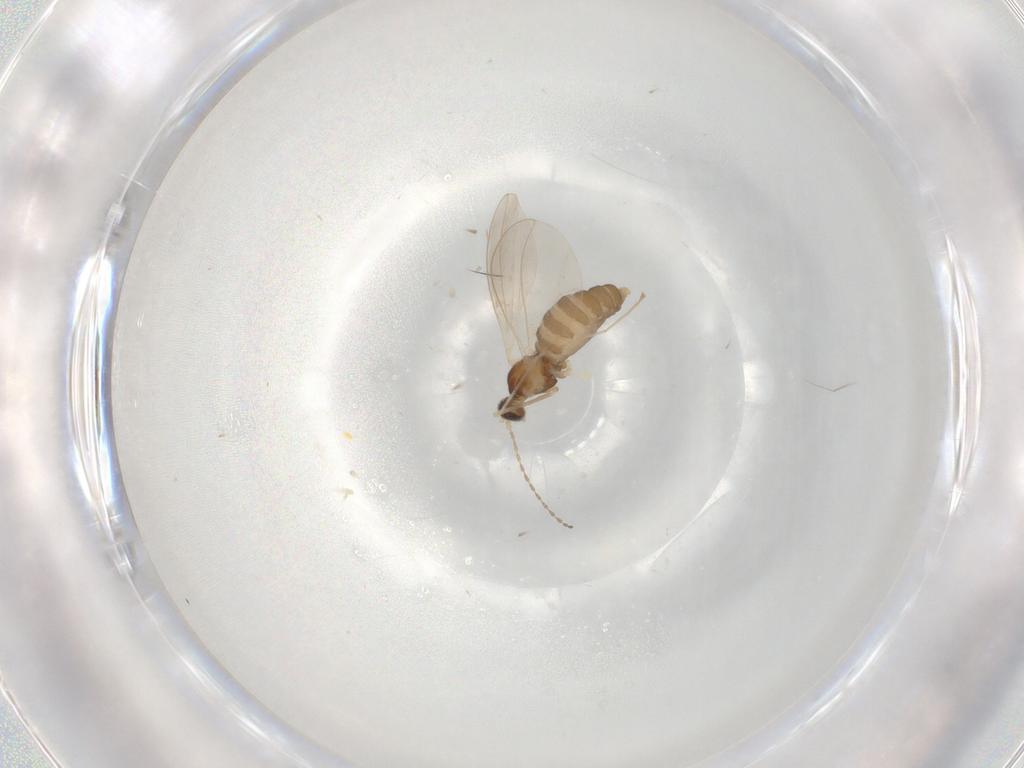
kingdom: Animalia
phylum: Arthropoda
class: Insecta
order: Diptera
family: Cecidomyiidae
